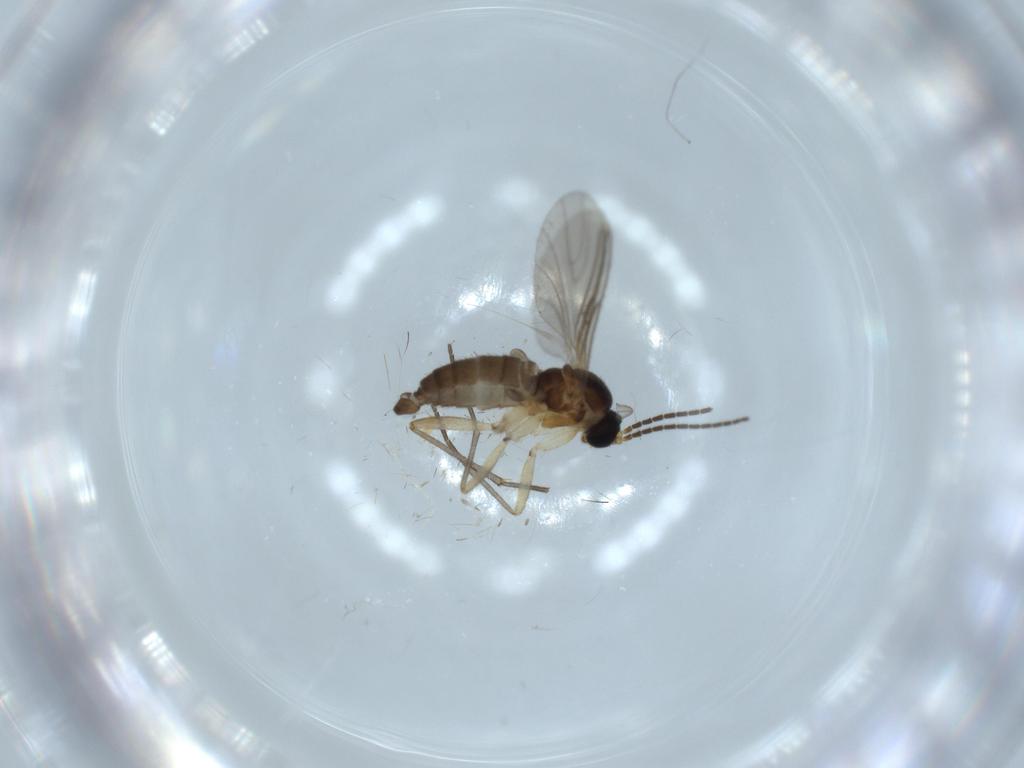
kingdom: Animalia
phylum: Arthropoda
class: Insecta
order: Diptera
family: Sciaridae
